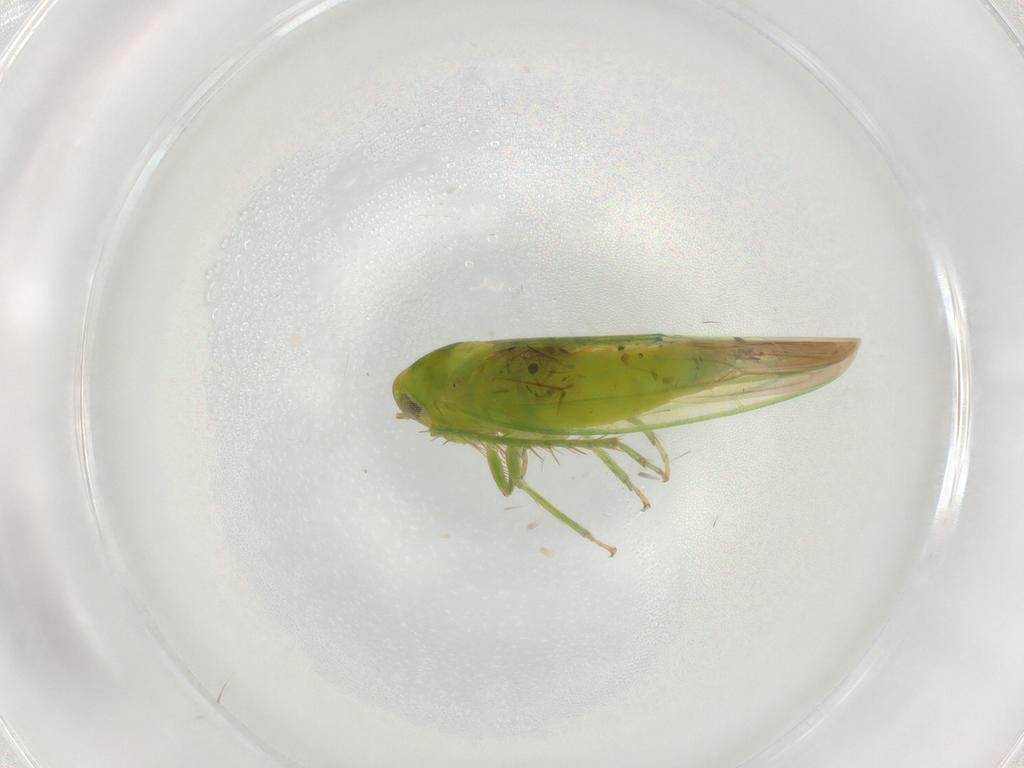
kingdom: Animalia
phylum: Arthropoda
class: Insecta
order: Hemiptera
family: Cicadellidae
